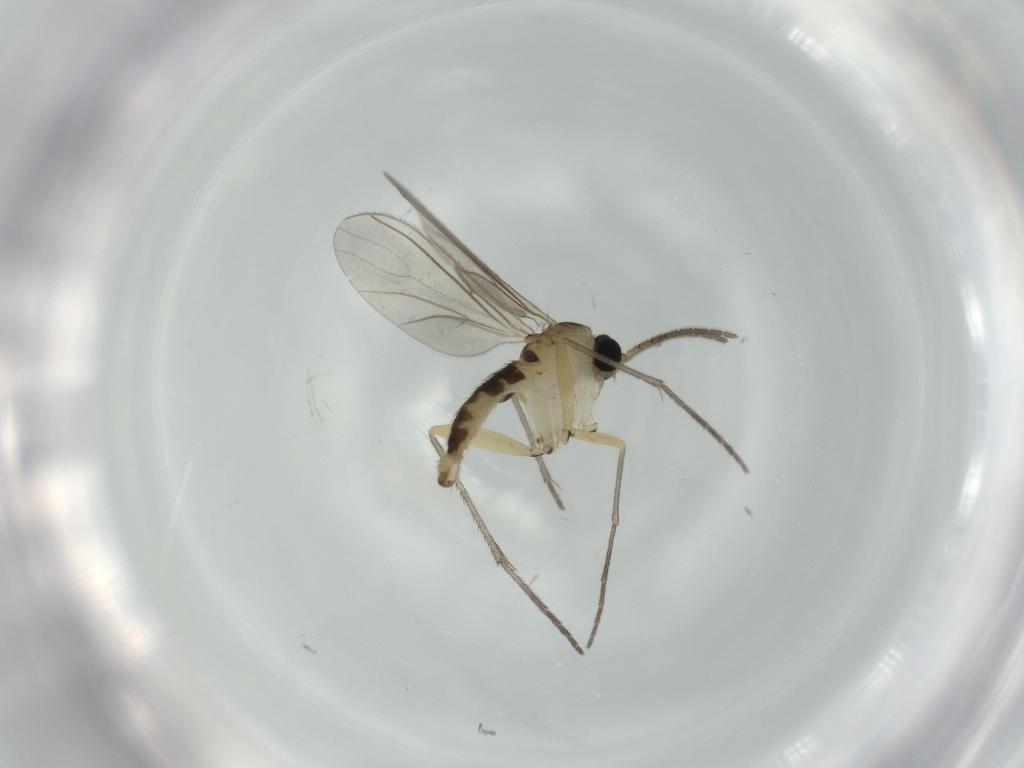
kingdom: Animalia
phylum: Arthropoda
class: Insecta
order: Diptera
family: Sciaridae
